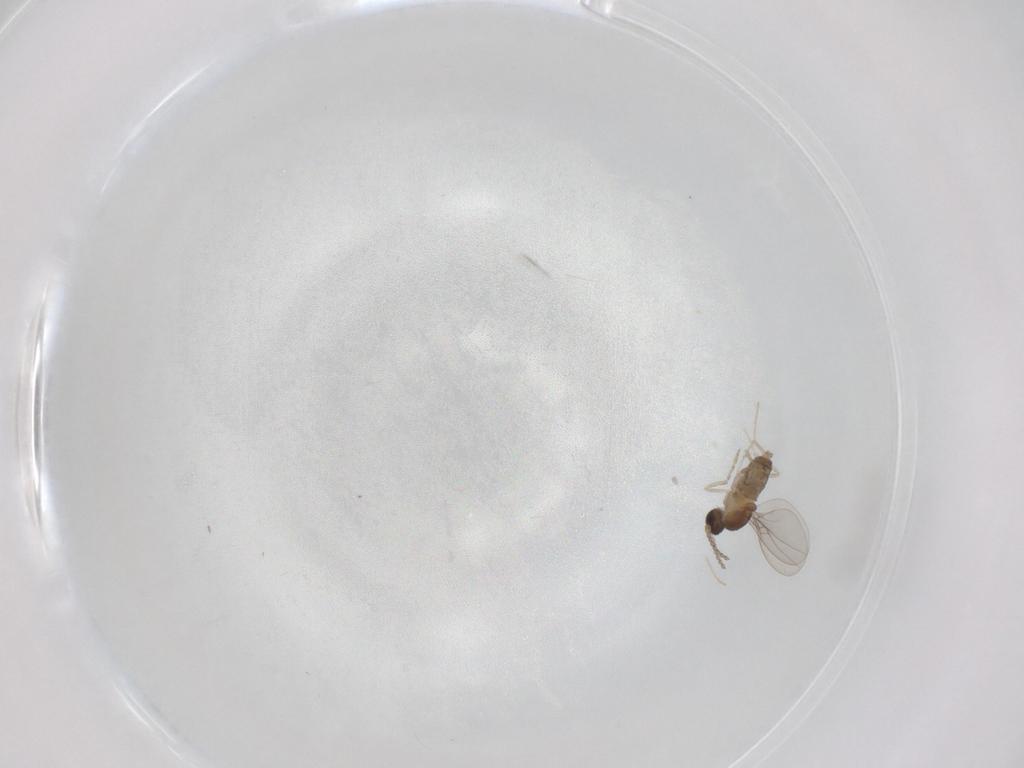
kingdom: Animalia
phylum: Arthropoda
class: Insecta
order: Diptera
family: Cecidomyiidae
